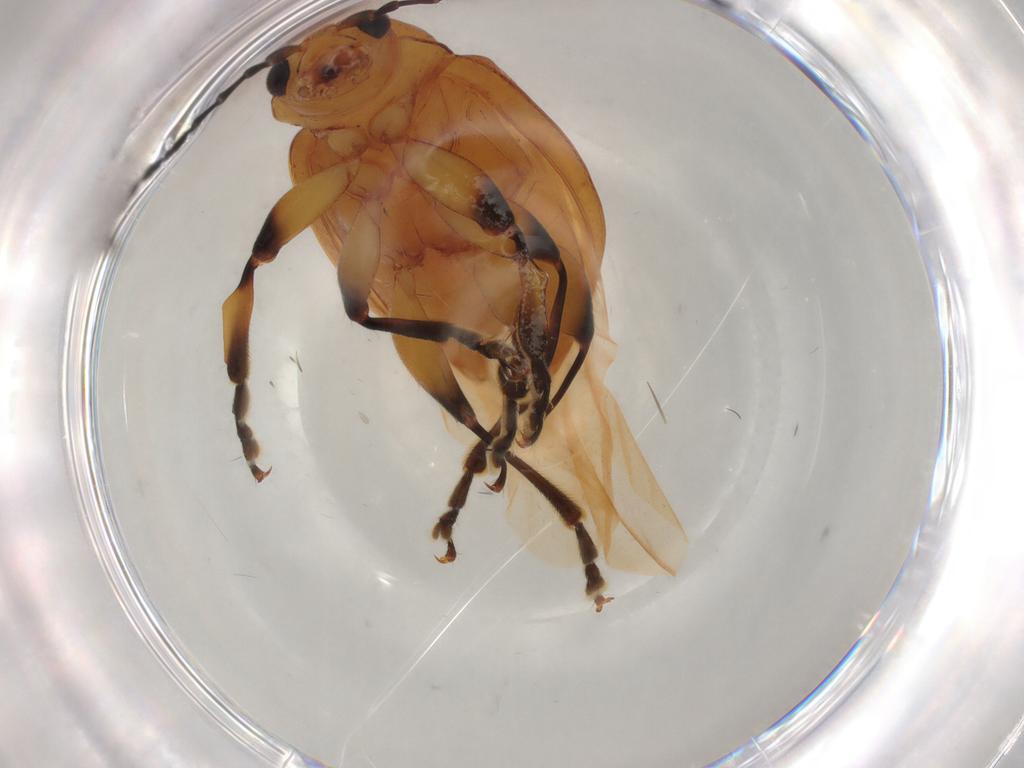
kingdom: Animalia
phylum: Arthropoda
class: Insecta
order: Coleoptera
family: Chrysomelidae
